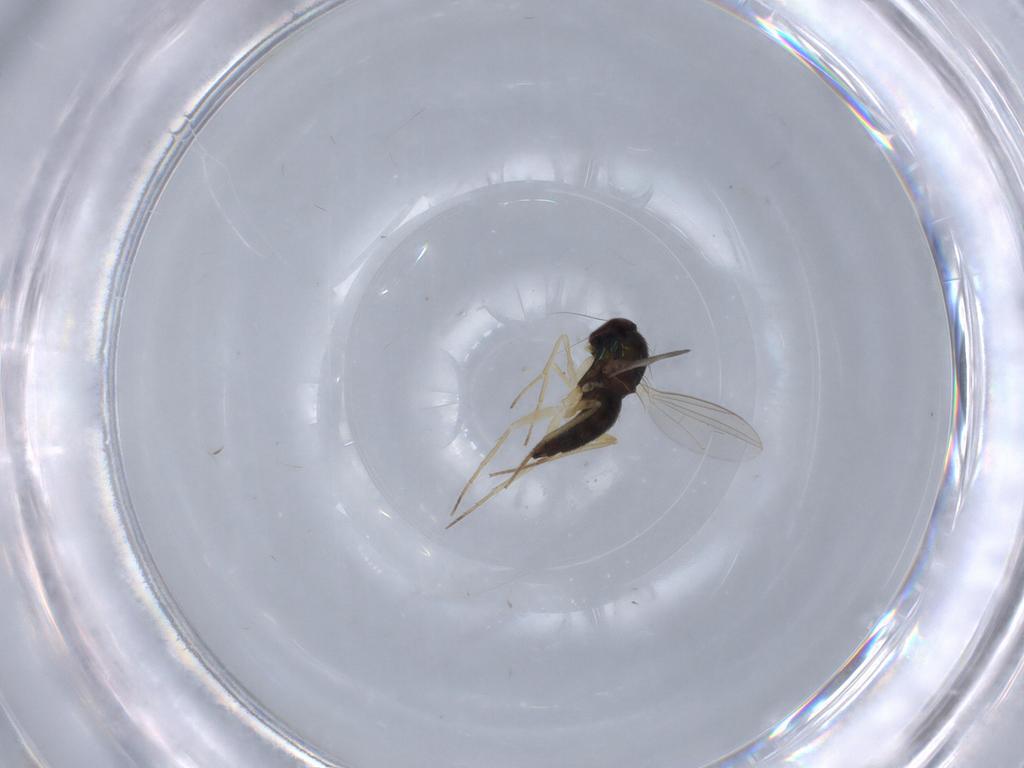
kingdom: Animalia
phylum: Arthropoda
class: Insecta
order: Diptera
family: Dolichopodidae
